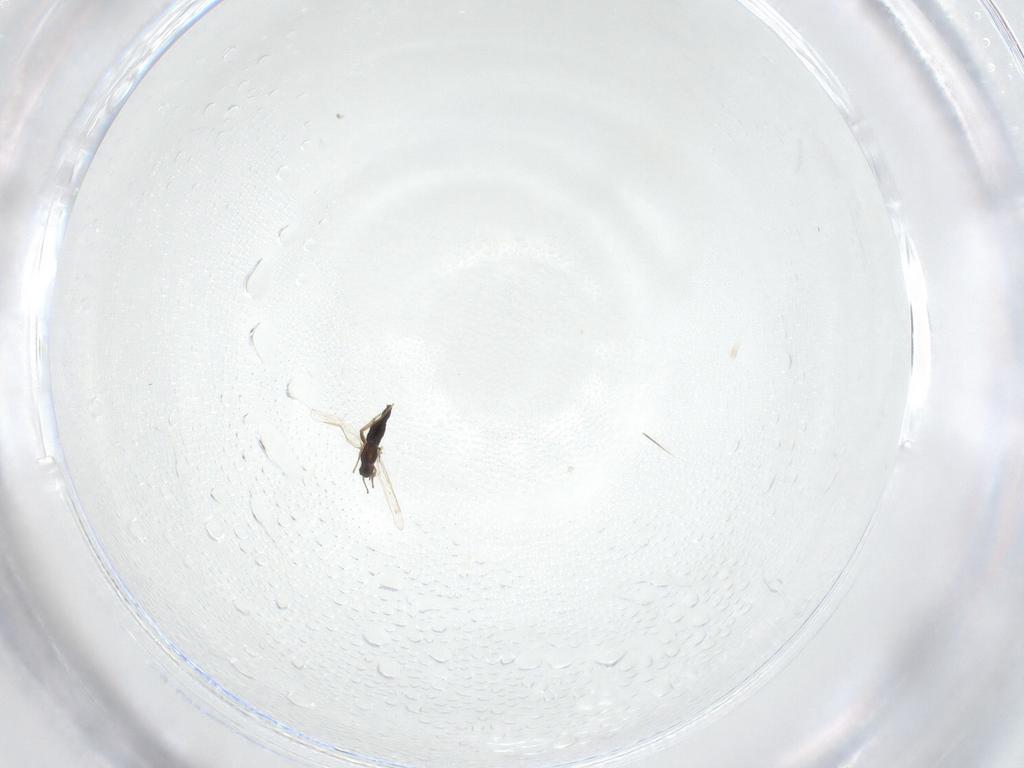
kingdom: Animalia
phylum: Arthropoda
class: Insecta
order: Diptera
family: Chironomidae
